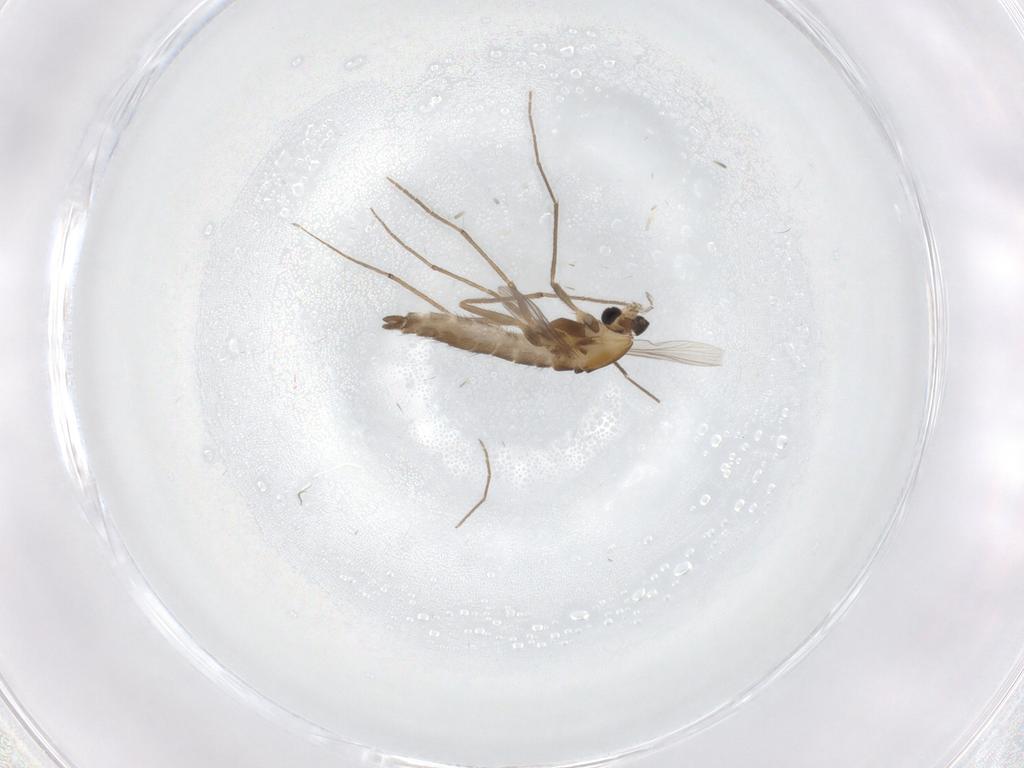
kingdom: Animalia
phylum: Arthropoda
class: Insecta
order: Diptera
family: Chironomidae
